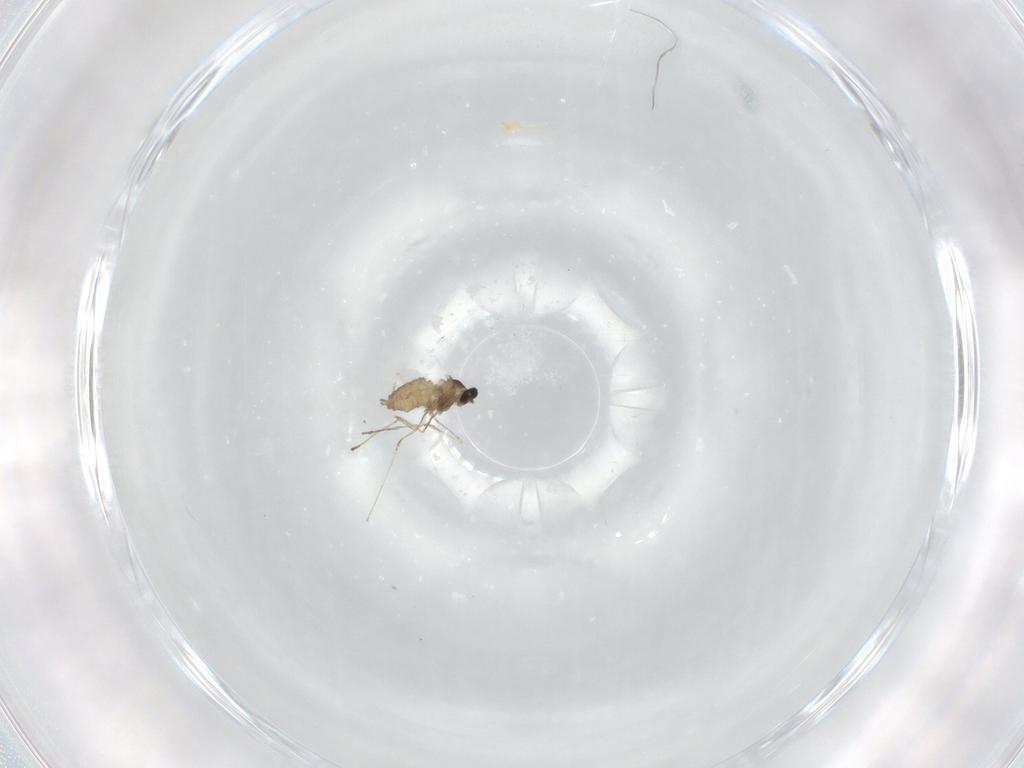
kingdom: Animalia
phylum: Arthropoda
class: Insecta
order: Diptera
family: Cecidomyiidae
